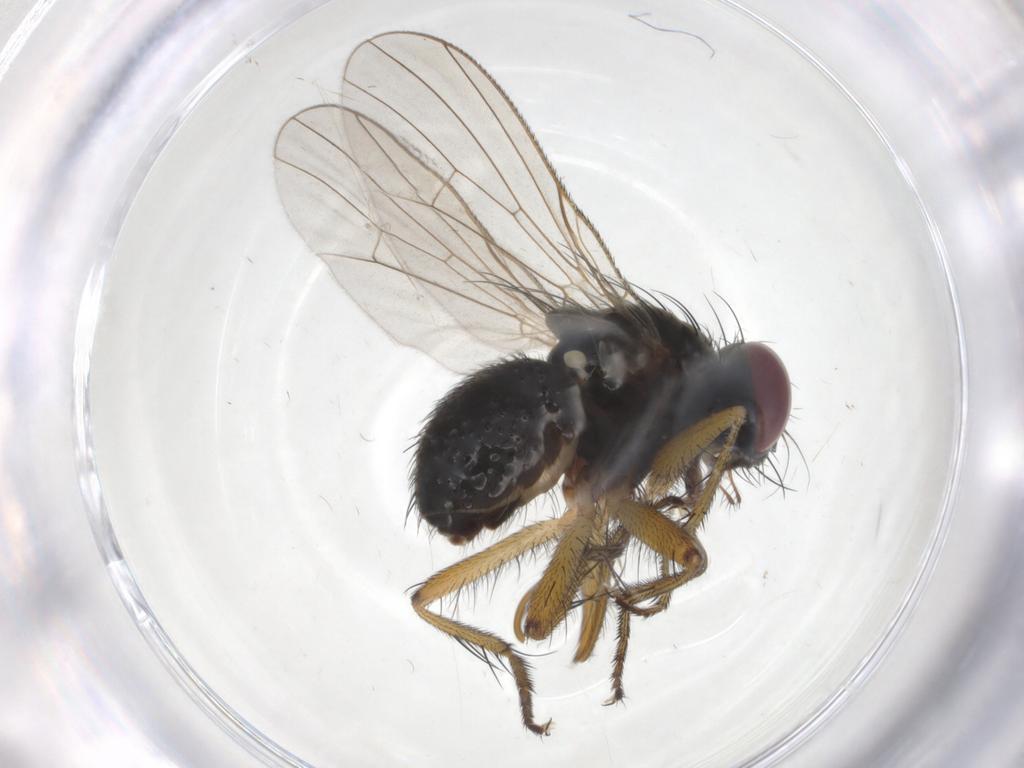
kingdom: Animalia
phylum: Arthropoda
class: Insecta
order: Diptera
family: Muscidae
